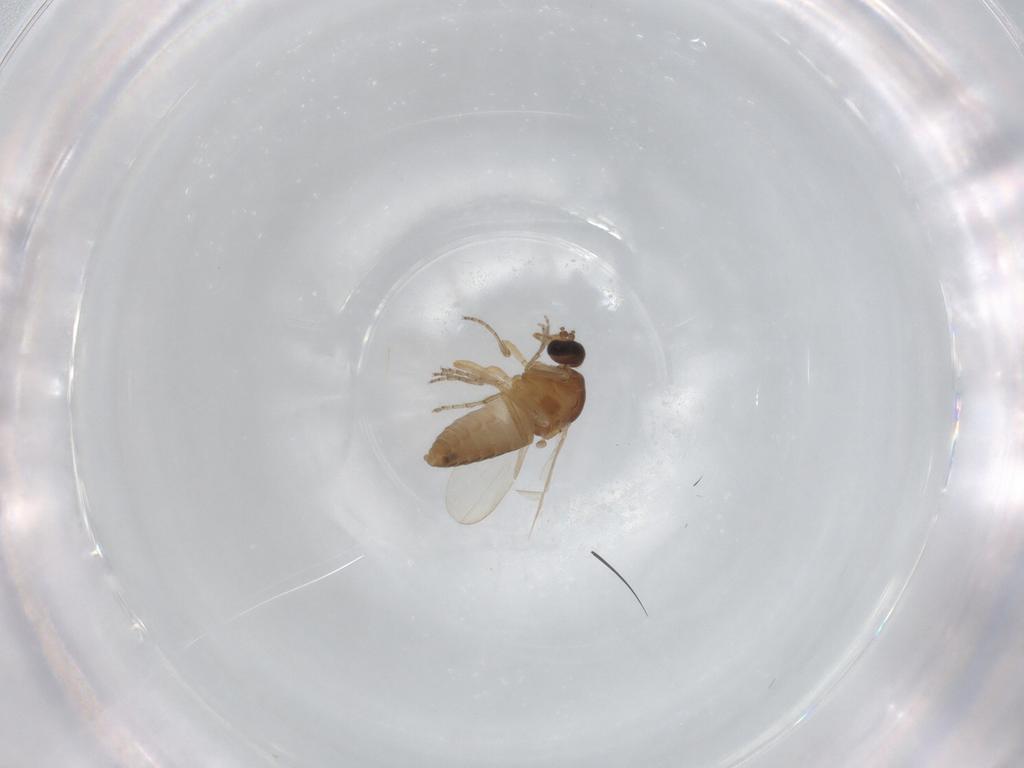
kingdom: Animalia
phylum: Arthropoda
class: Insecta
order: Diptera
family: Ceratopogonidae
